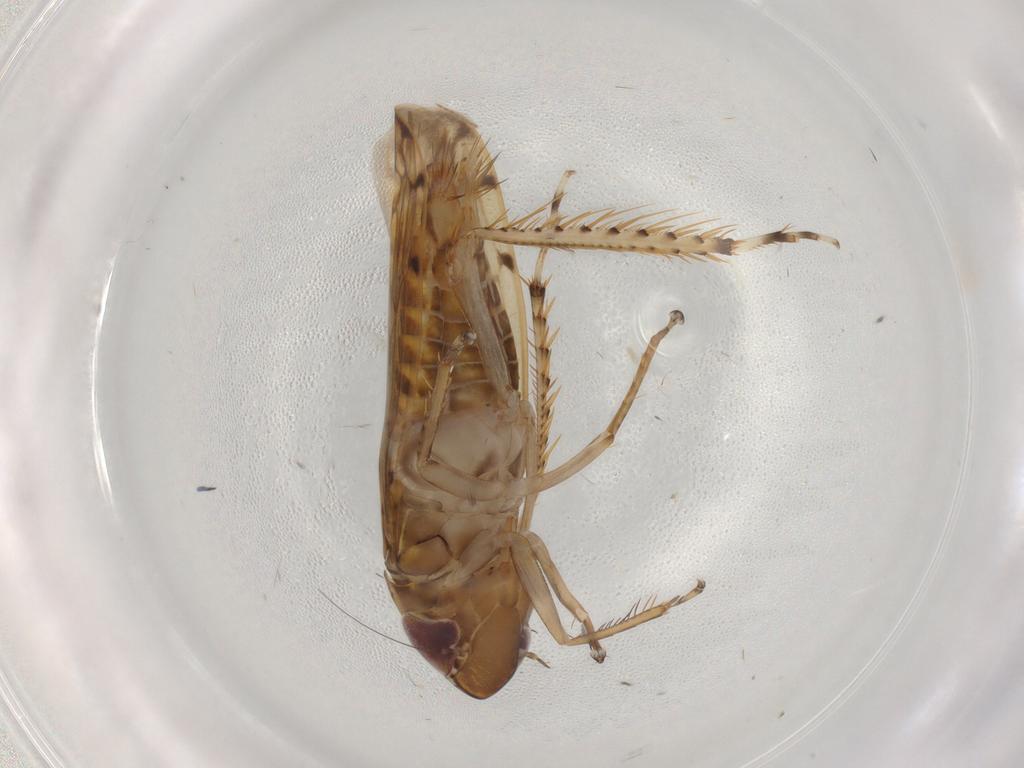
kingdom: Animalia
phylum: Arthropoda
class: Insecta
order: Hemiptera
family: Cicadellidae
